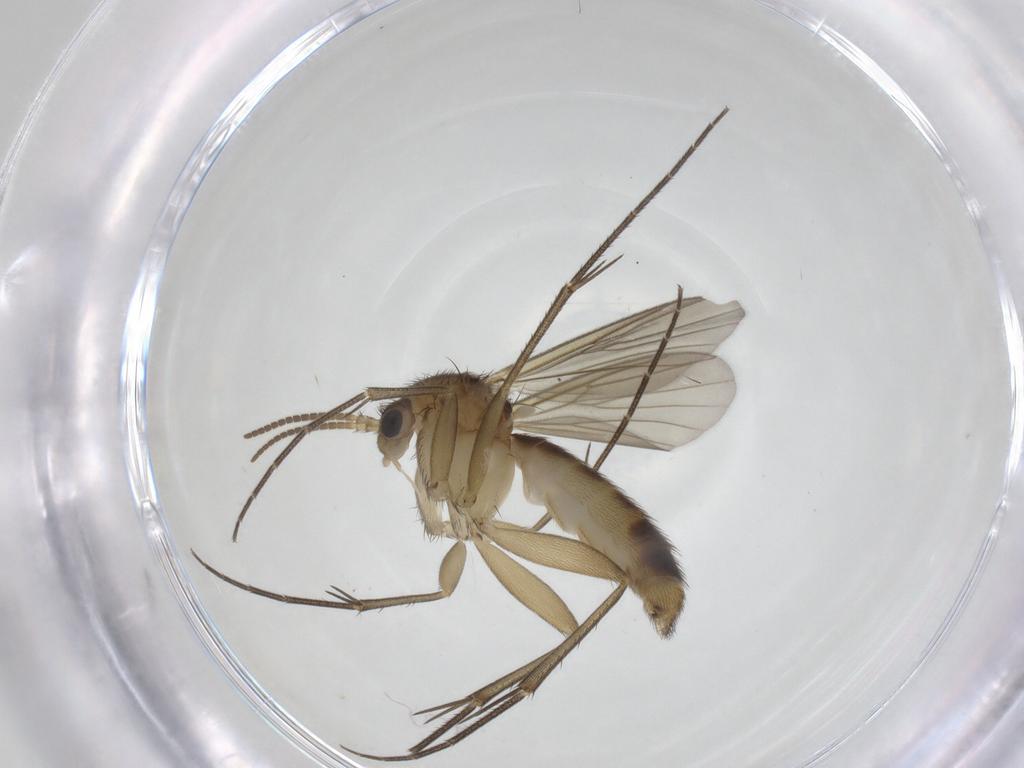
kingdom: Animalia
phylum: Arthropoda
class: Insecta
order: Diptera
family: Mycetophilidae
